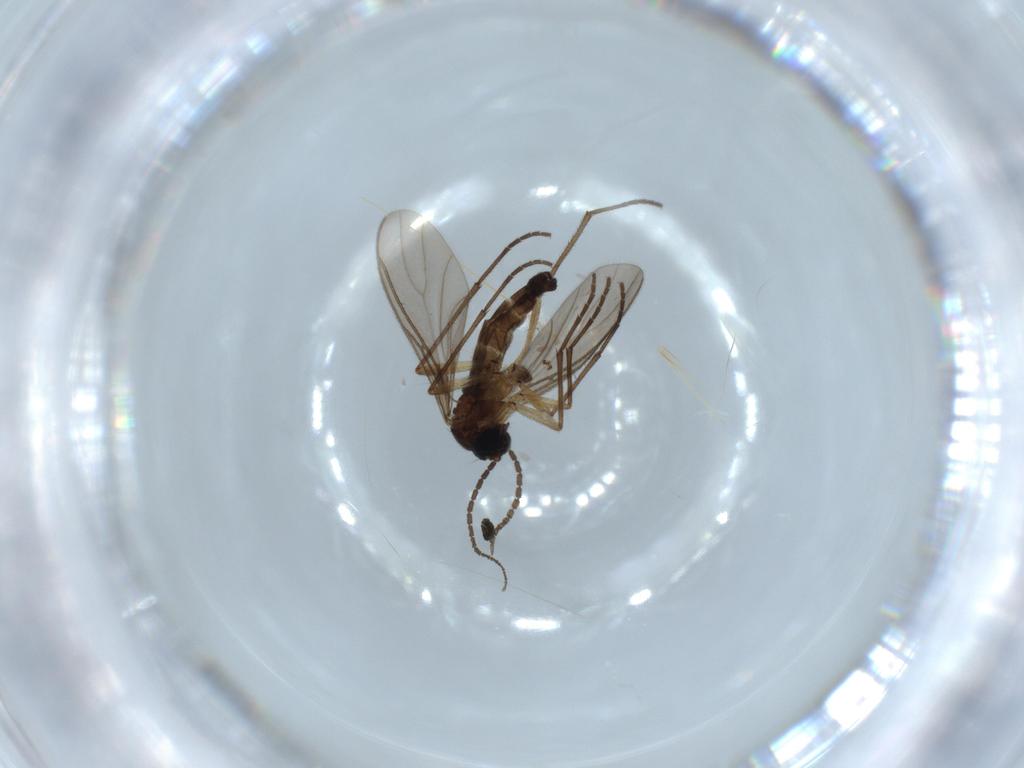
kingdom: Animalia
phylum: Arthropoda
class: Insecta
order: Diptera
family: Sciaridae
